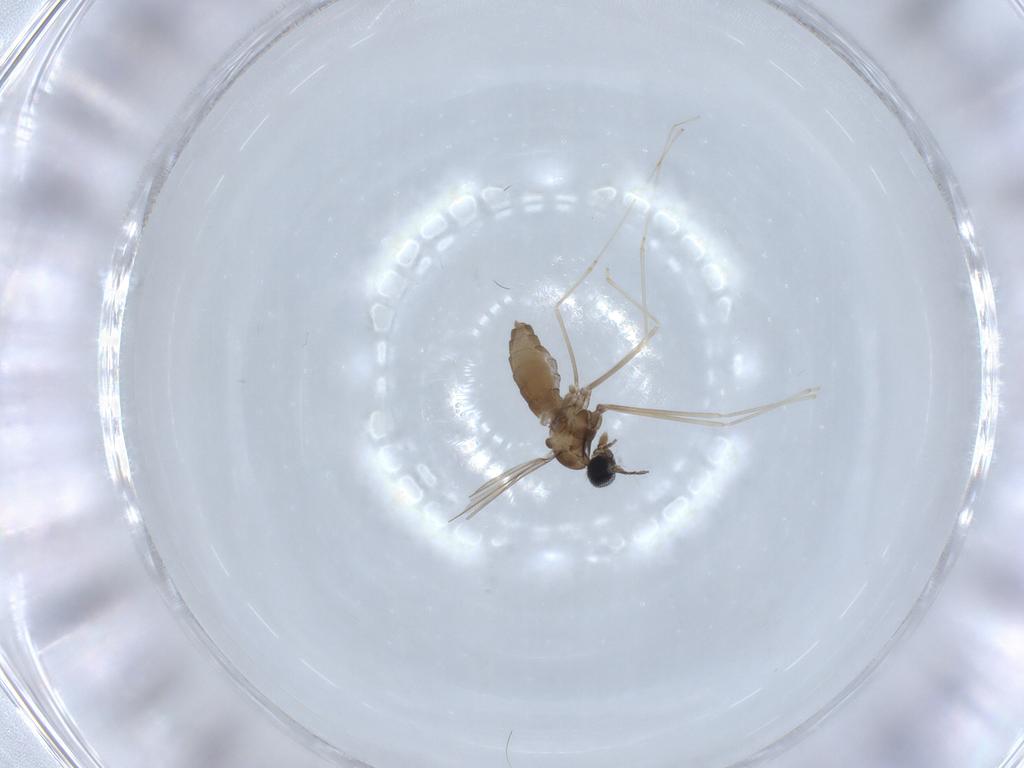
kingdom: Animalia
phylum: Arthropoda
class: Insecta
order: Diptera
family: Cecidomyiidae
